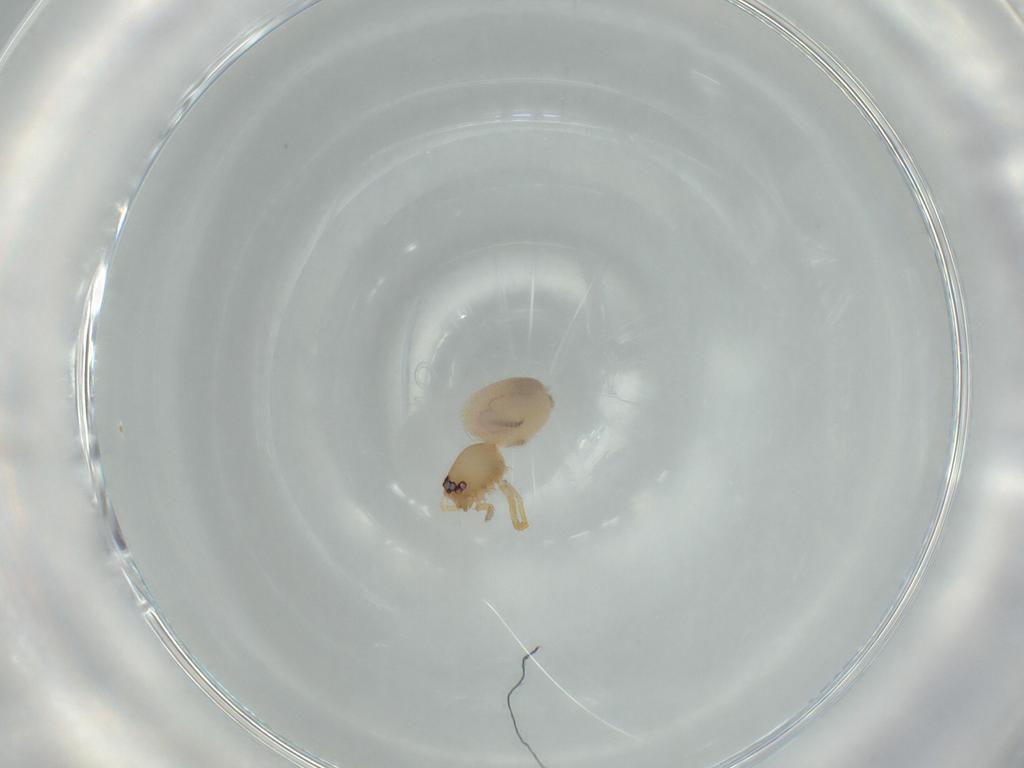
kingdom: Animalia
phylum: Arthropoda
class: Arachnida
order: Araneae
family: Oonopidae
